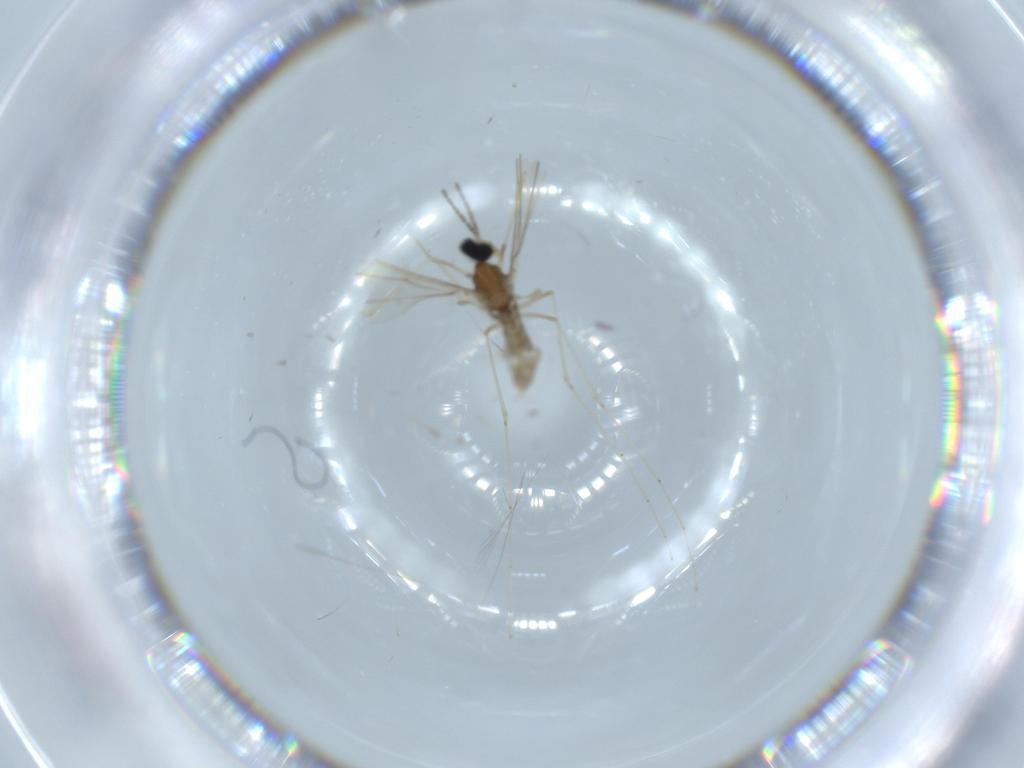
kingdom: Animalia
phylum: Arthropoda
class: Insecta
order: Diptera
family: Cecidomyiidae
